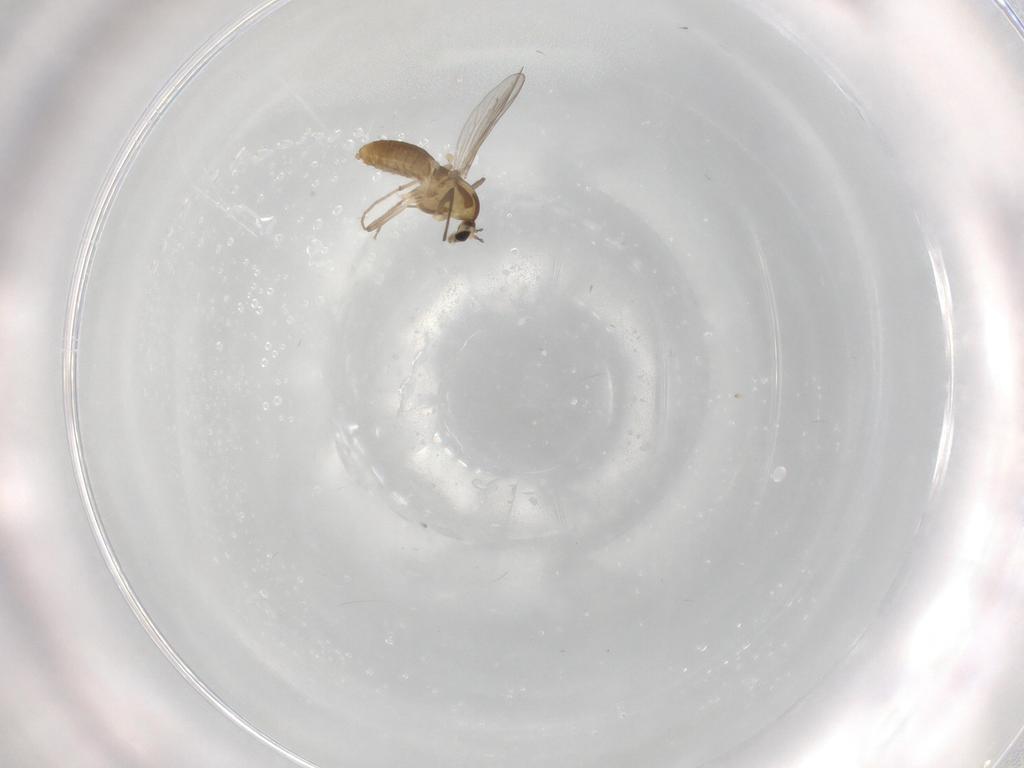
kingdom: Animalia
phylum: Arthropoda
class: Insecta
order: Diptera
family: Chironomidae
